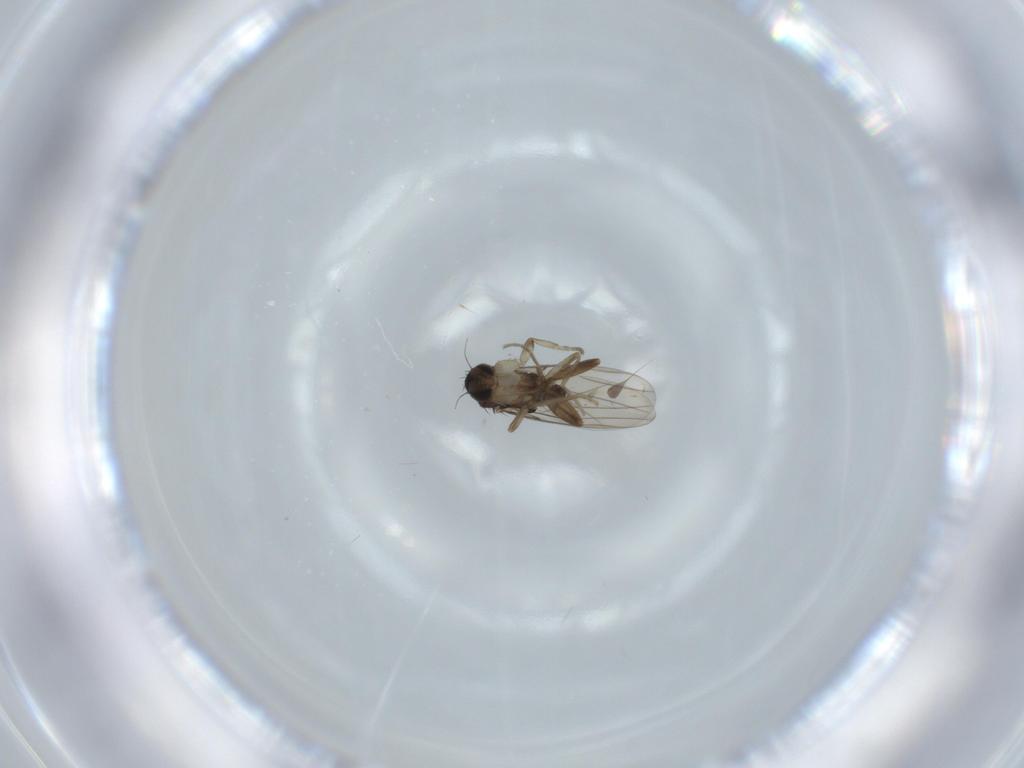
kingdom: Animalia
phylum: Arthropoda
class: Insecta
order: Diptera
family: Phoridae
